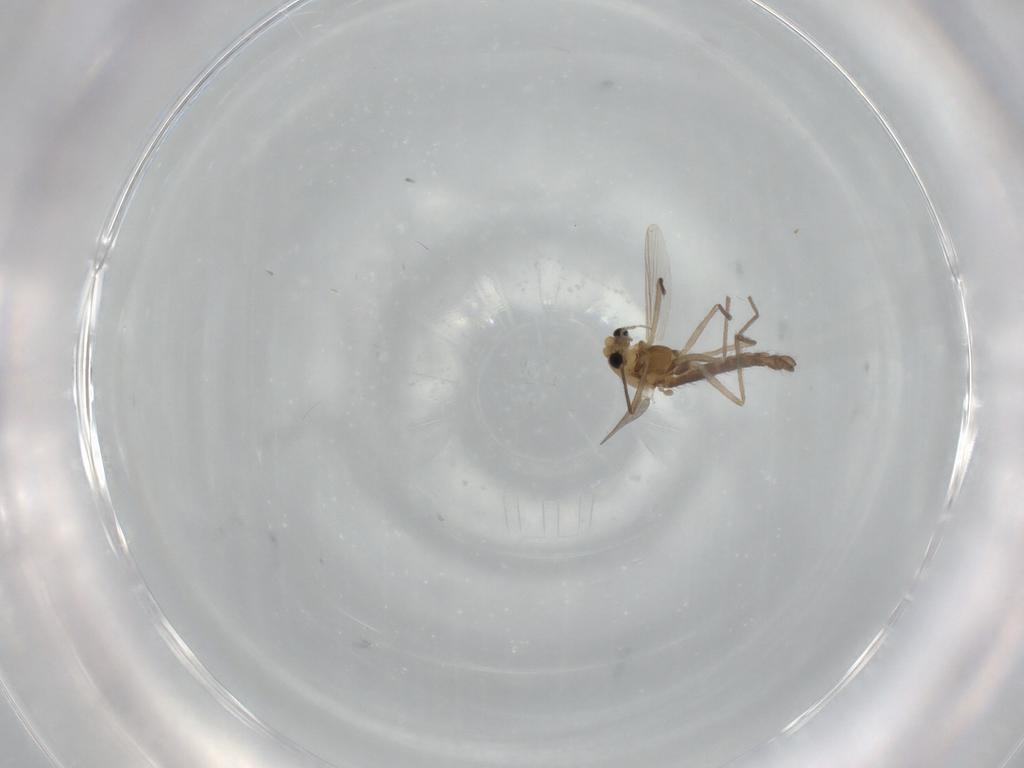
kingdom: Animalia
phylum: Arthropoda
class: Insecta
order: Diptera
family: Chironomidae
